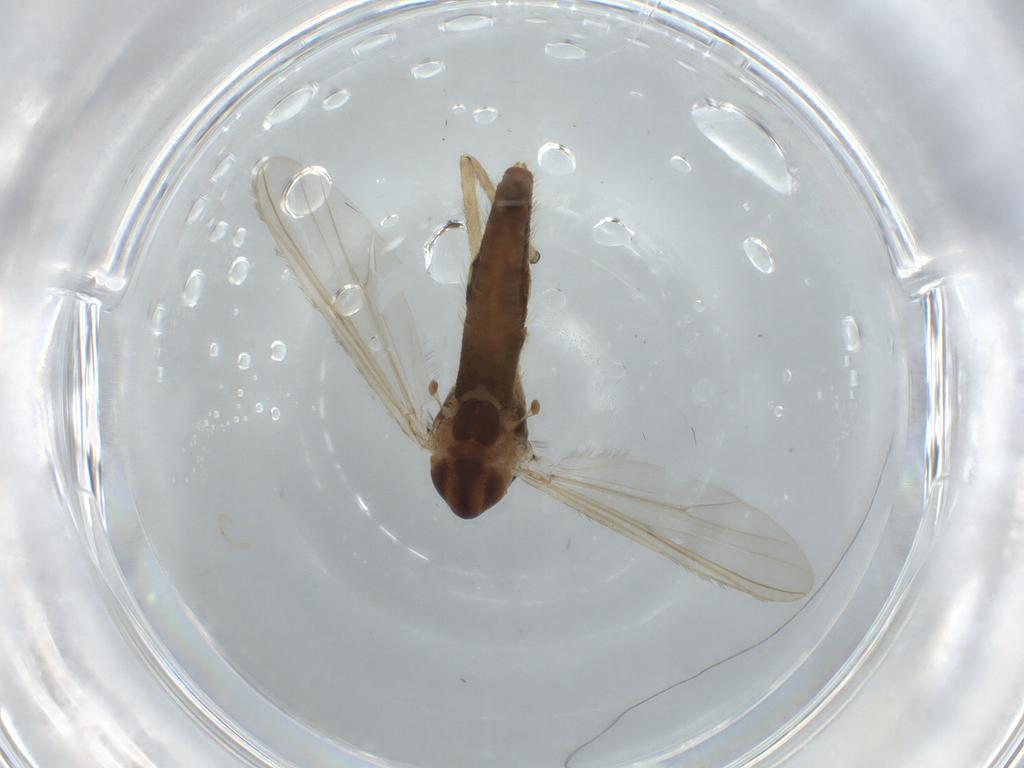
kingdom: Animalia
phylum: Arthropoda
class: Insecta
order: Diptera
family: Chironomidae
